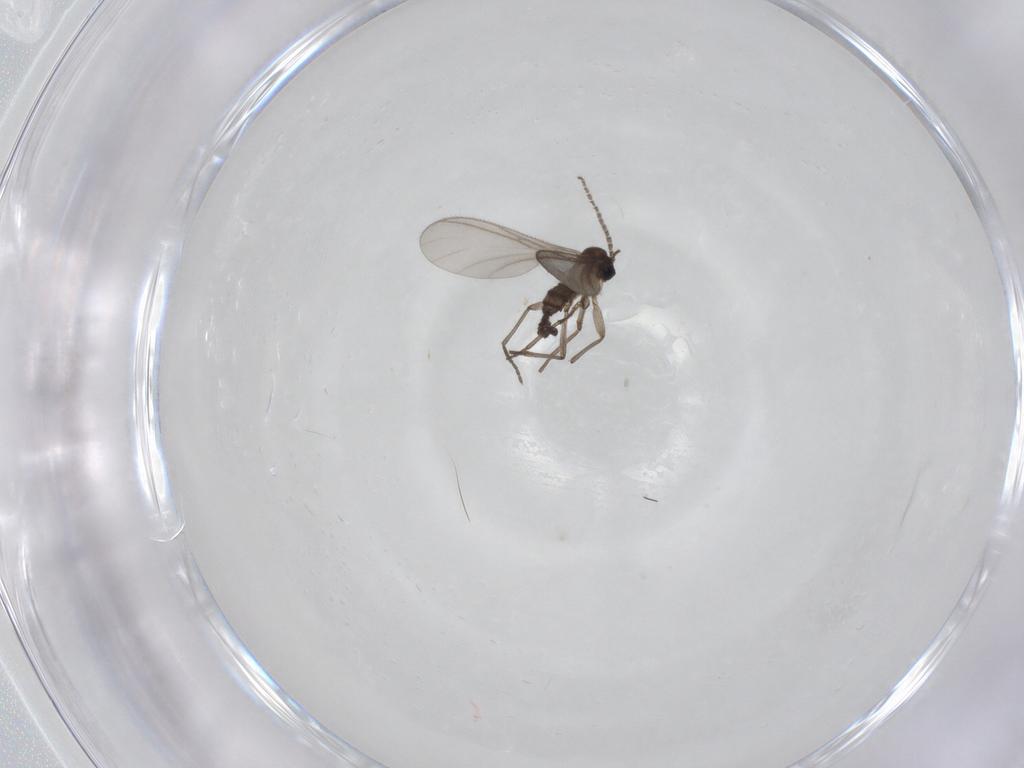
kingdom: Animalia
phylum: Arthropoda
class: Insecta
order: Diptera
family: Sciaridae
